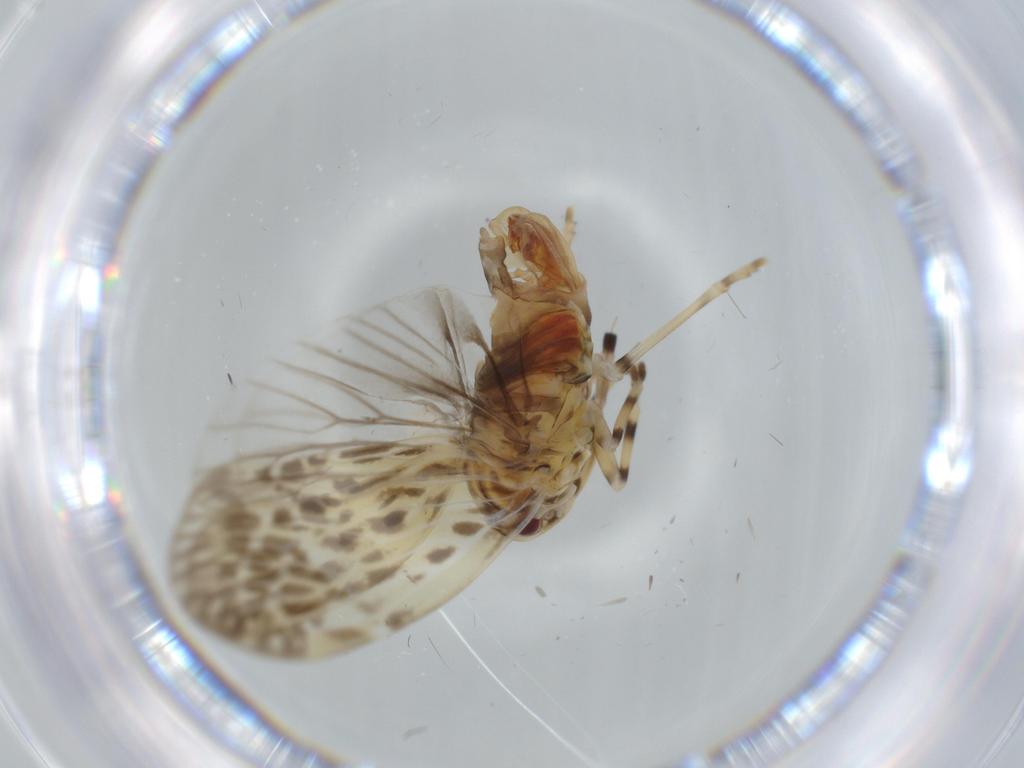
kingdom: Animalia
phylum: Arthropoda
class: Insecta
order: Hemiptera
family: Derbidae
